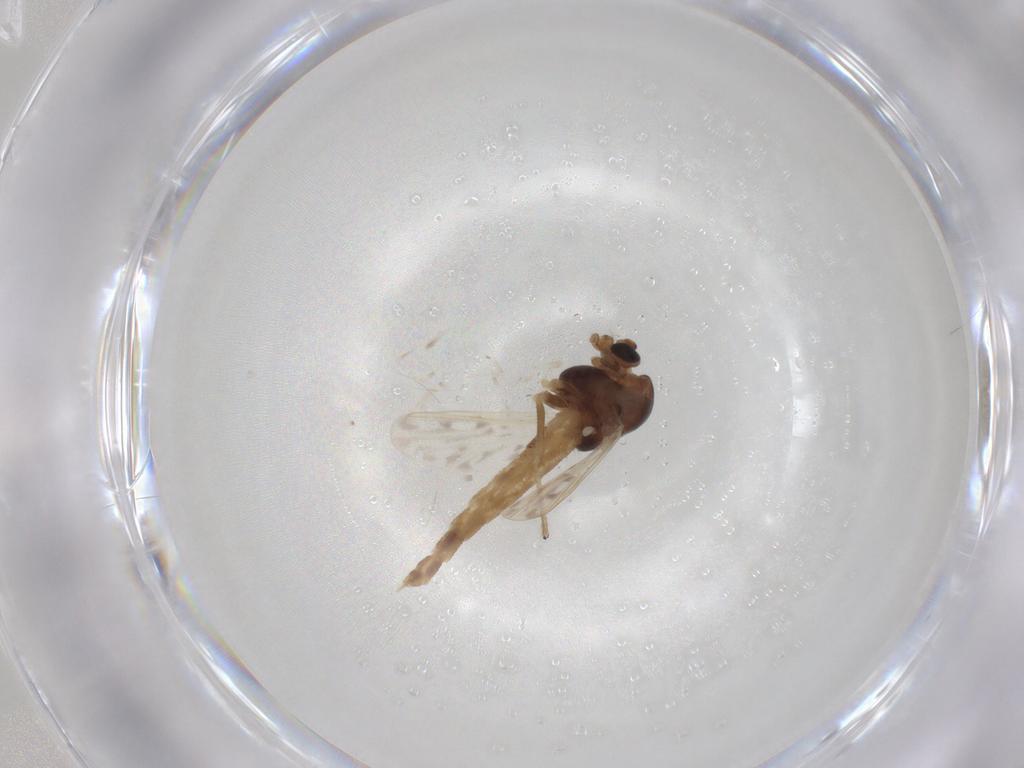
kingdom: Animalia
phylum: Arthropoda
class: Insecta
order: Diptera
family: Chironomidae
